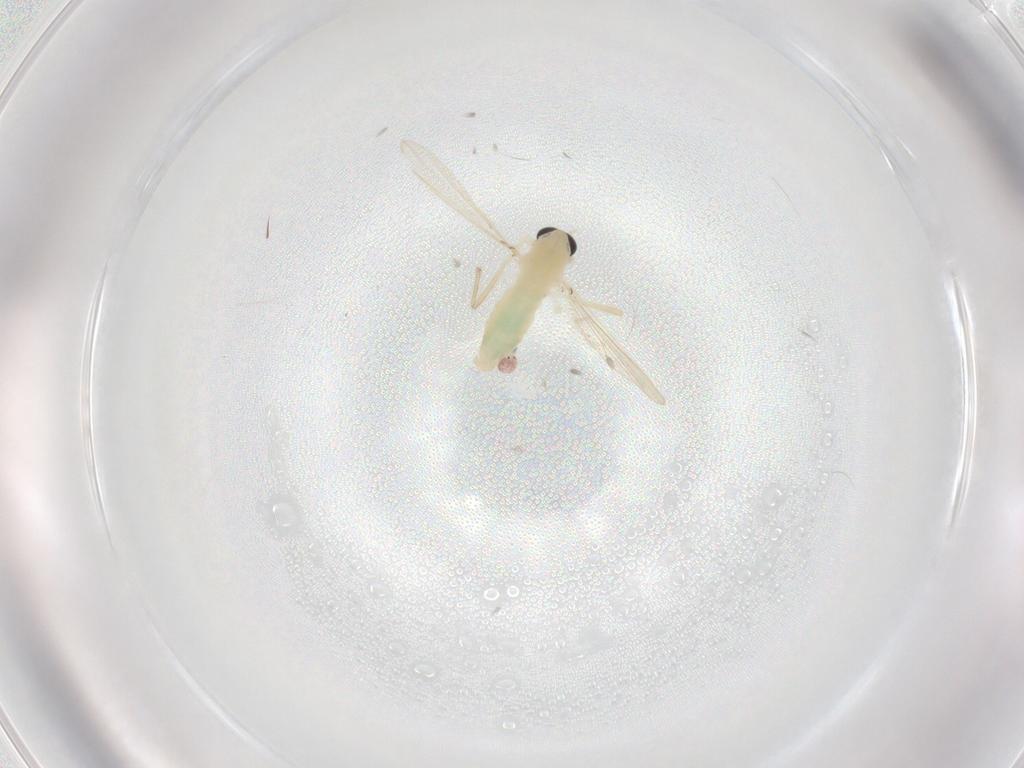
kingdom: Animalia
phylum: Arthropoda
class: Insecta
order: Diptera
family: Chironomidae
